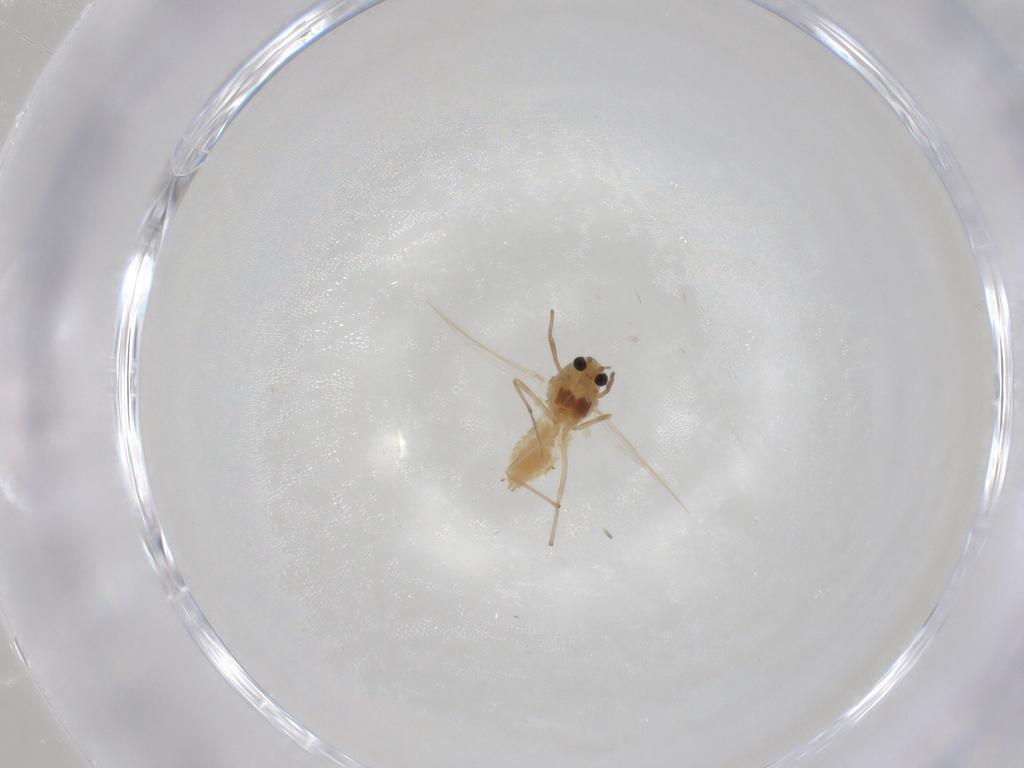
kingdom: Animalia
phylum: Arthropoda
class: Insecta
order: Diptera
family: Chironomidae
